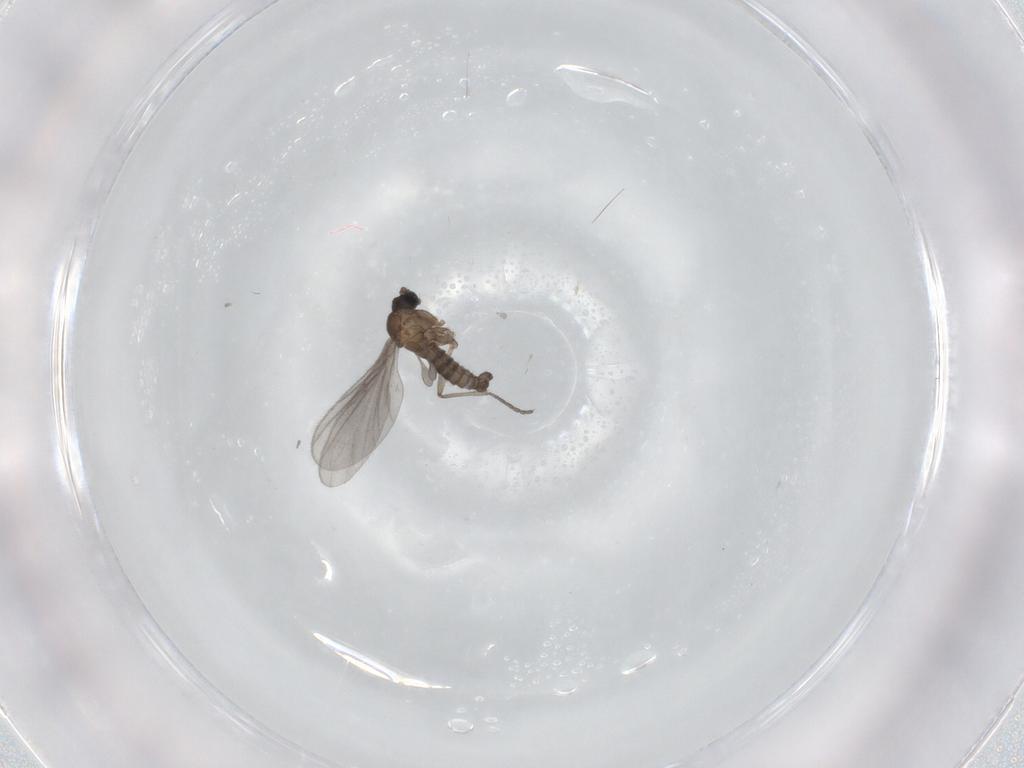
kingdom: Animalia
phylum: Arthropoda
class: Insecta
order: Diptera
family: Sciaridae
